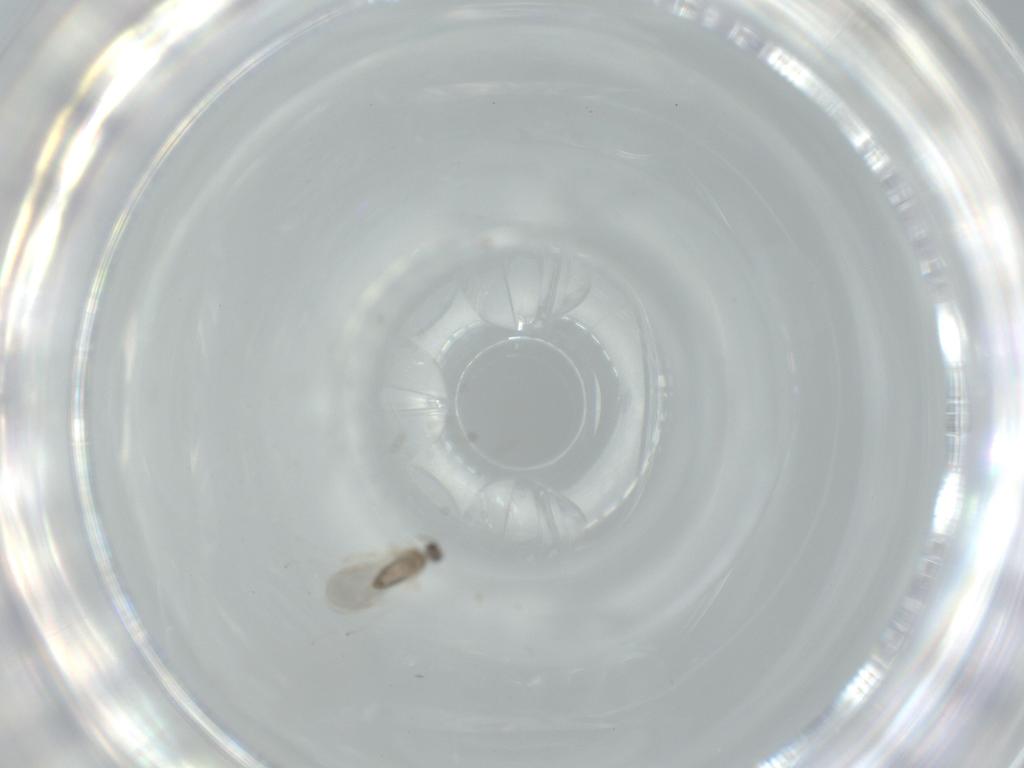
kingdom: Animalia
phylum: Arthropoda
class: Insecta
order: Diptera
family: Cecidomyiidae
